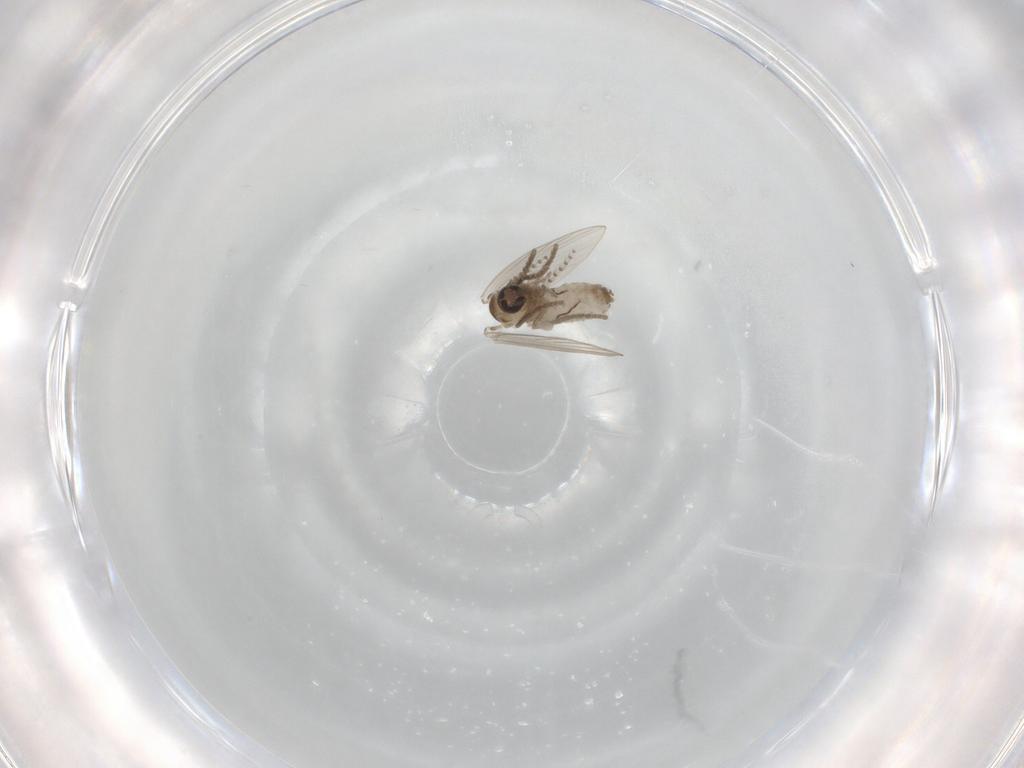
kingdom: Animalia
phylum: Arthropoda
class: Insecta
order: Diptera
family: Psychodidae
